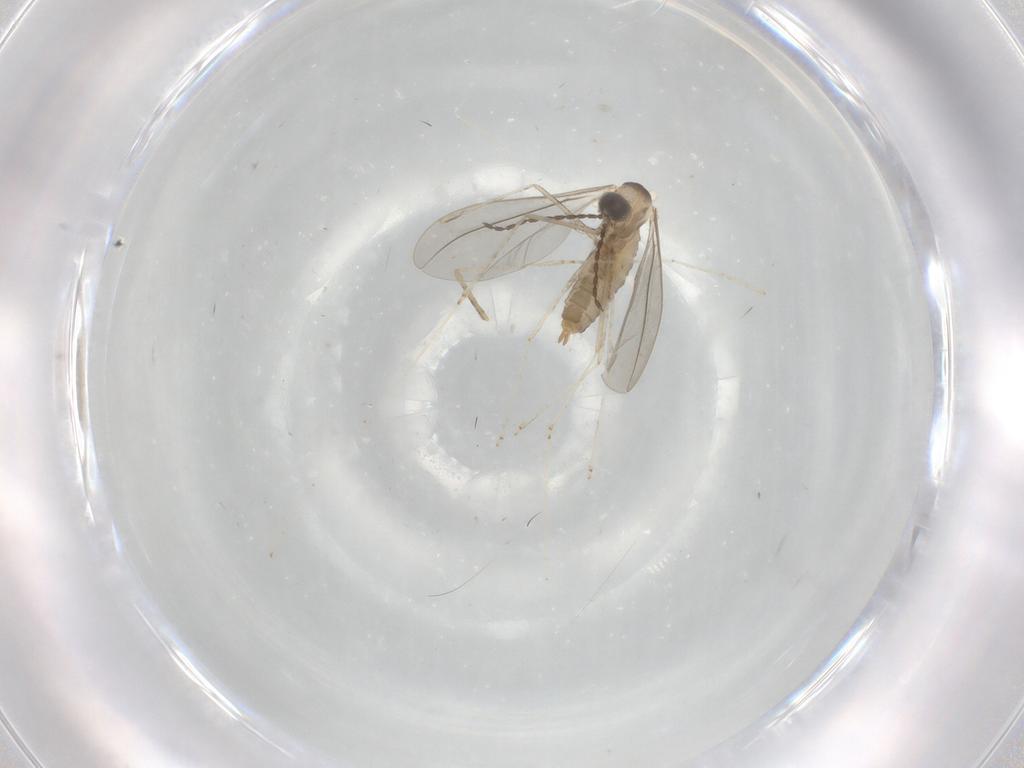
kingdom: Animalia
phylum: Arthropoda
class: Insecta
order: Diptera
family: Cecidomyiidae
